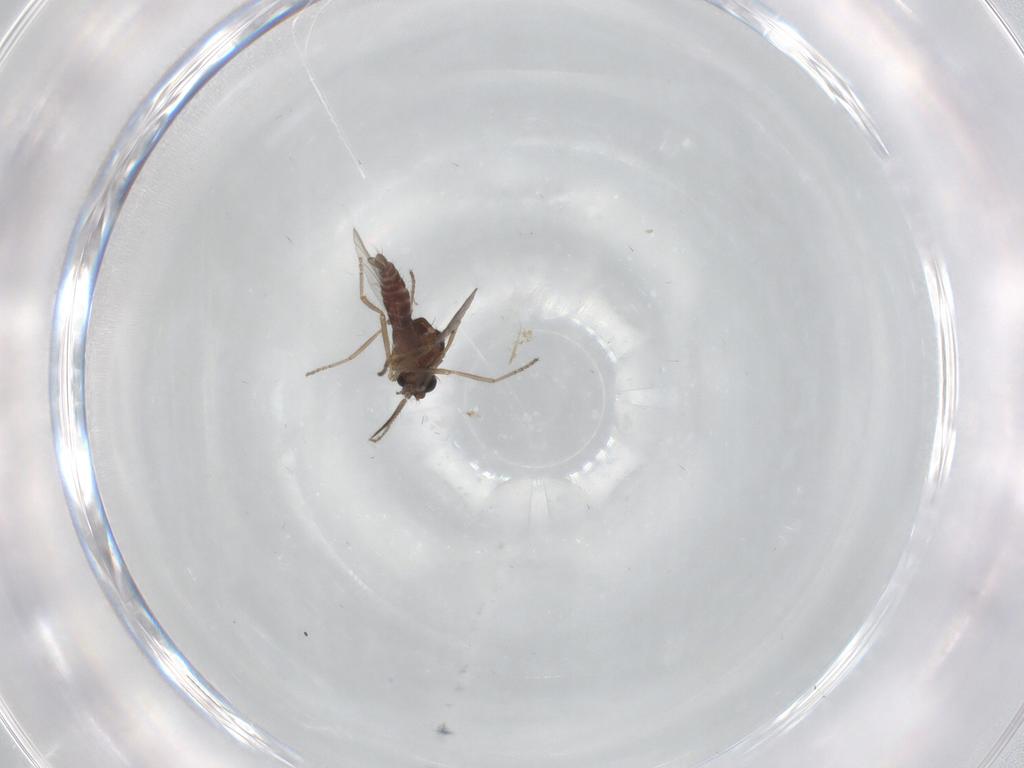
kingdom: Animalia
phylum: Arthropoda
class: Insecta
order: Diptera
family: Ceratopogonidae
